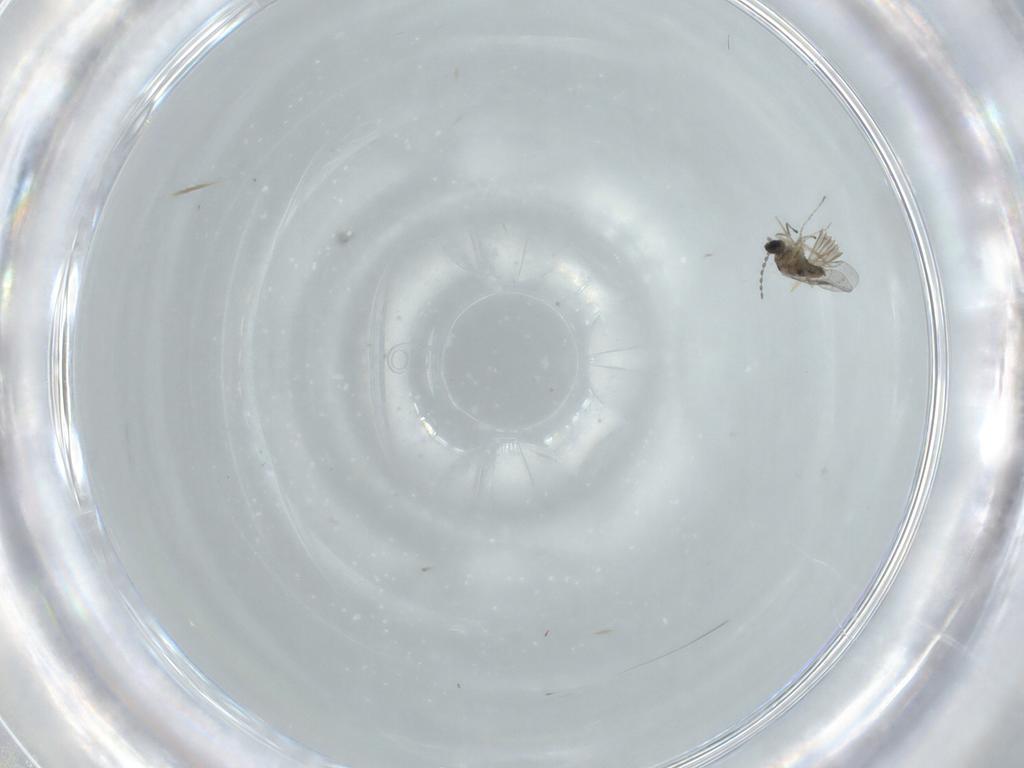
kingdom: Animalia
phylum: Arthropoda
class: Insecta
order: Diptera
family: Cecidomyiidae
